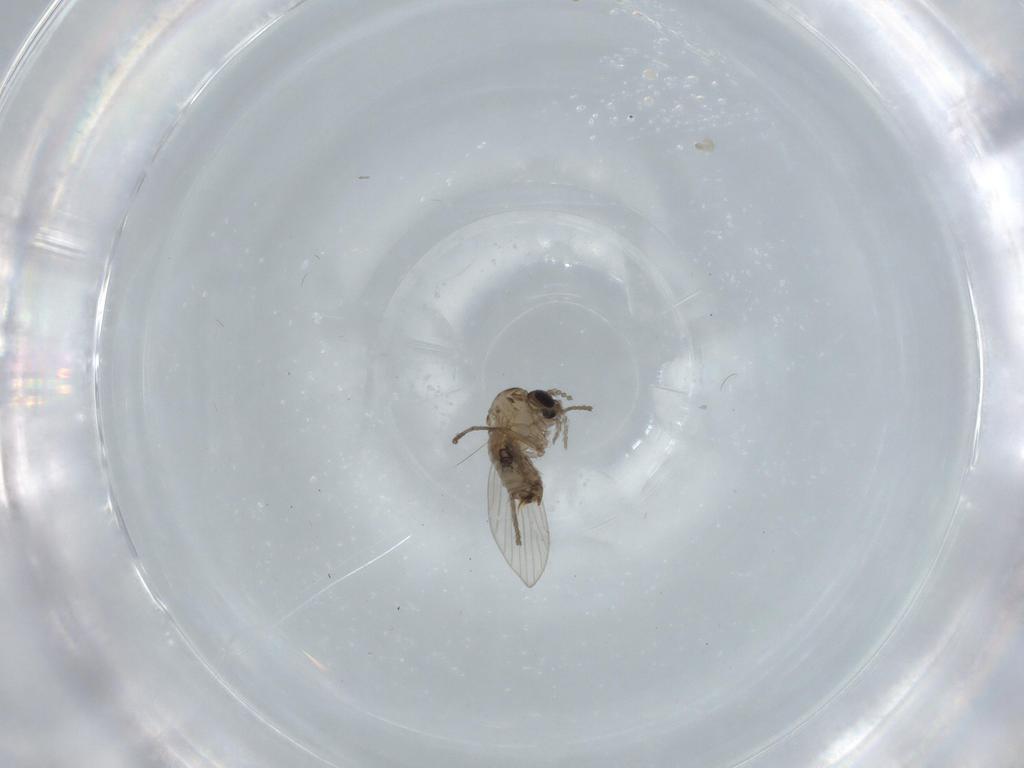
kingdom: Animalia
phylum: Arthropoda
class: Insecta
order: Diptera
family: Psychodidae
